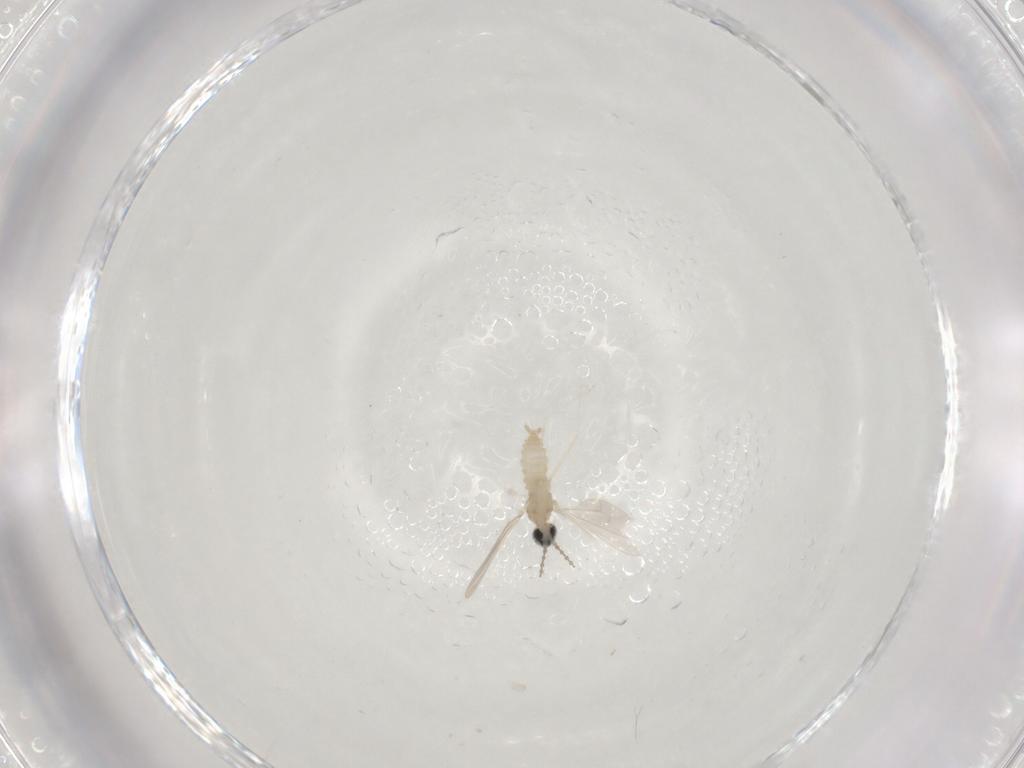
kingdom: Animalia
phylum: Arthropoda
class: Insecta
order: Diptera
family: Cecidomyiidae
